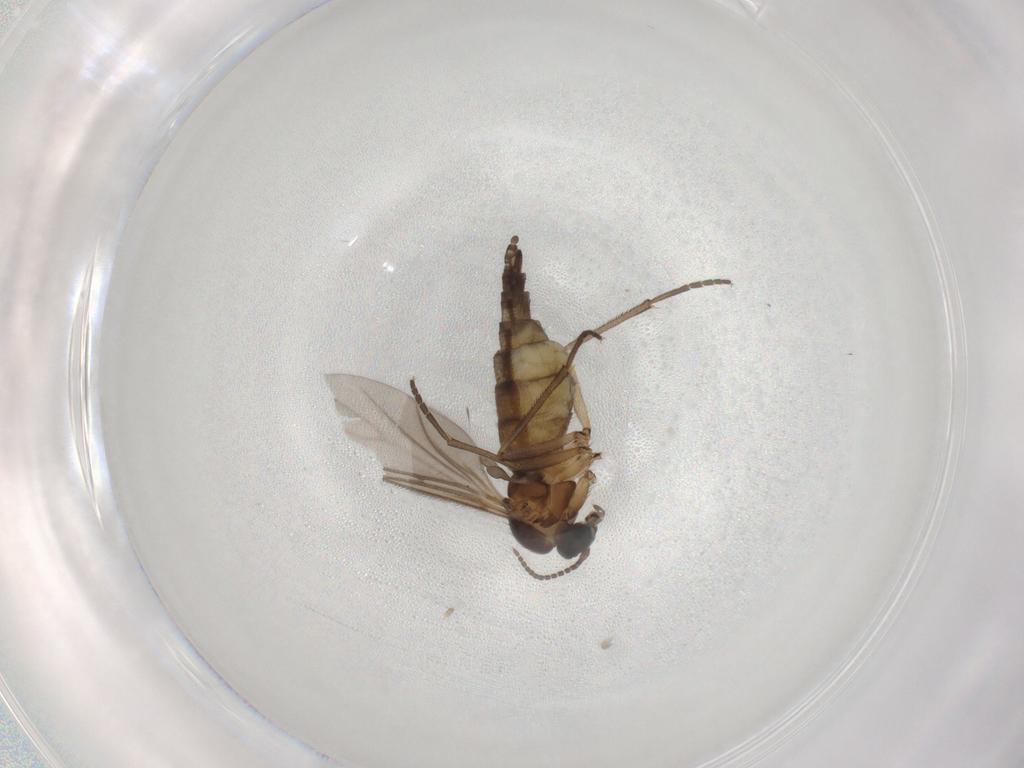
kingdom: Animalia
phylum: Arthropoda
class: Insecta
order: Diptera
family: Sciaridae
